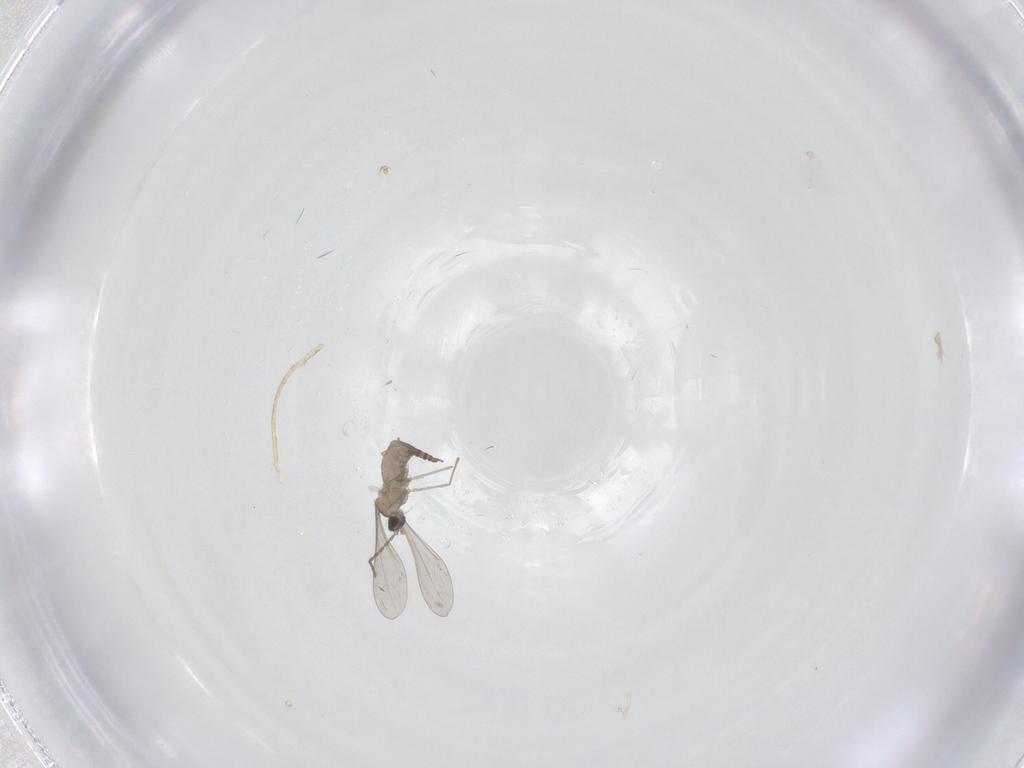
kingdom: Animalia
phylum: Arthropoda
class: Insecta
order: Diptera
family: Cecidomyiidae
